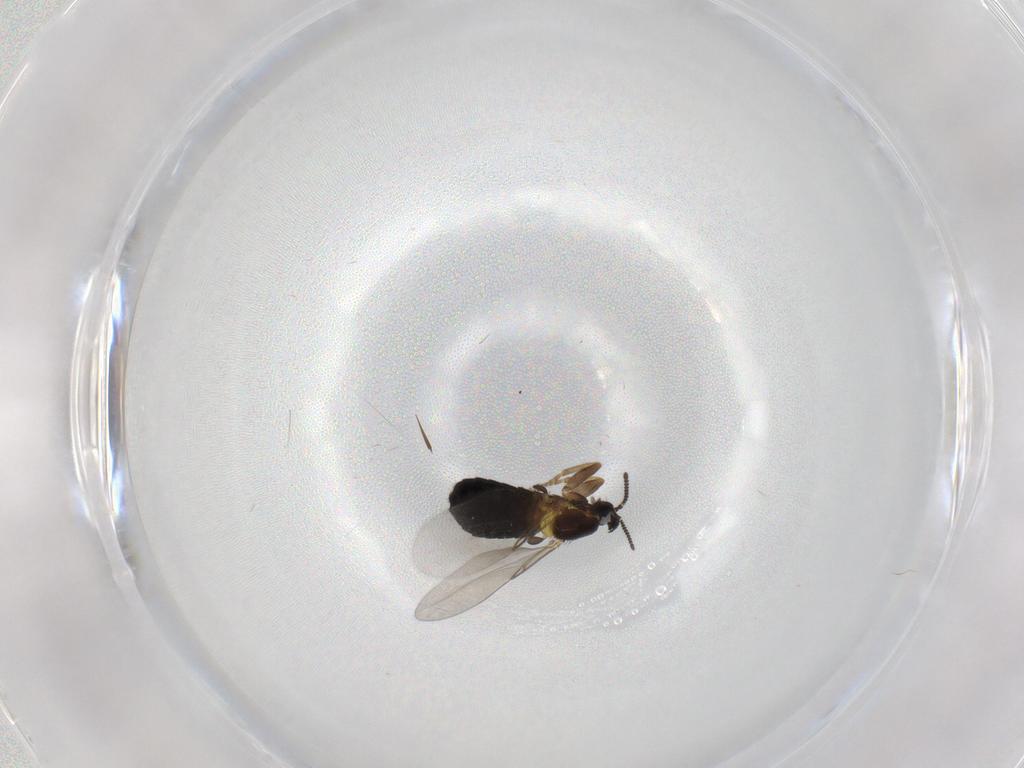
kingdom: Animalia
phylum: Arthropoda
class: Insecta
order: Diptera
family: Scatopsidae
